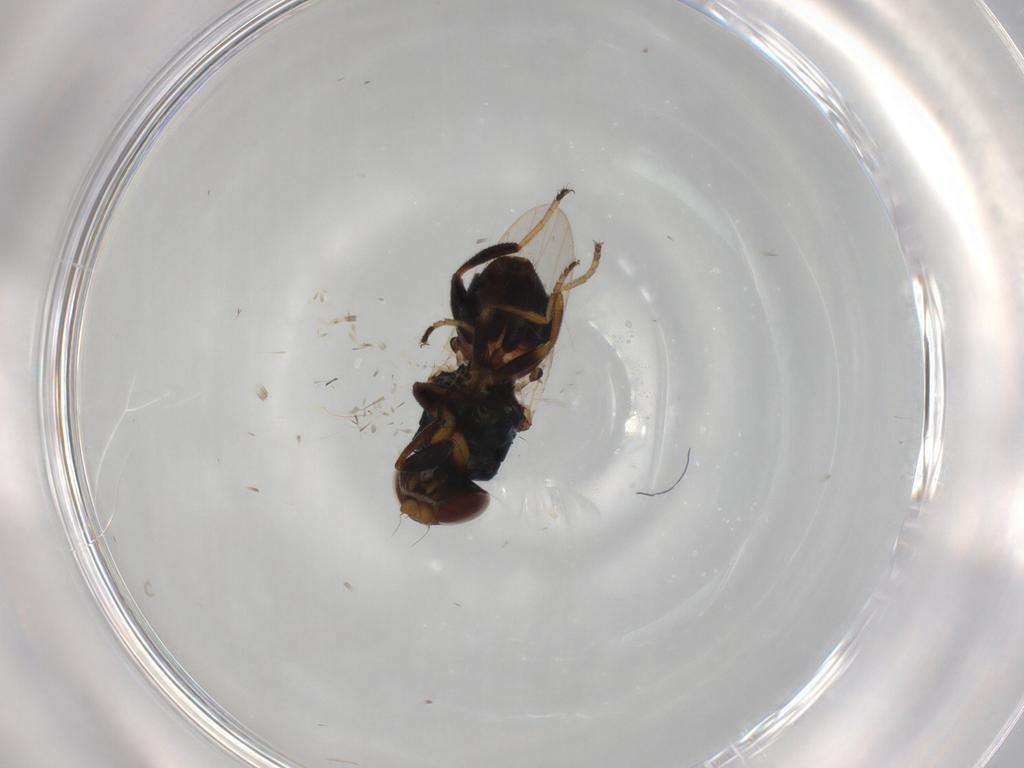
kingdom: Animalia
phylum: Arthropoda
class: Insecta
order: Diptera
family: Chloropidae
